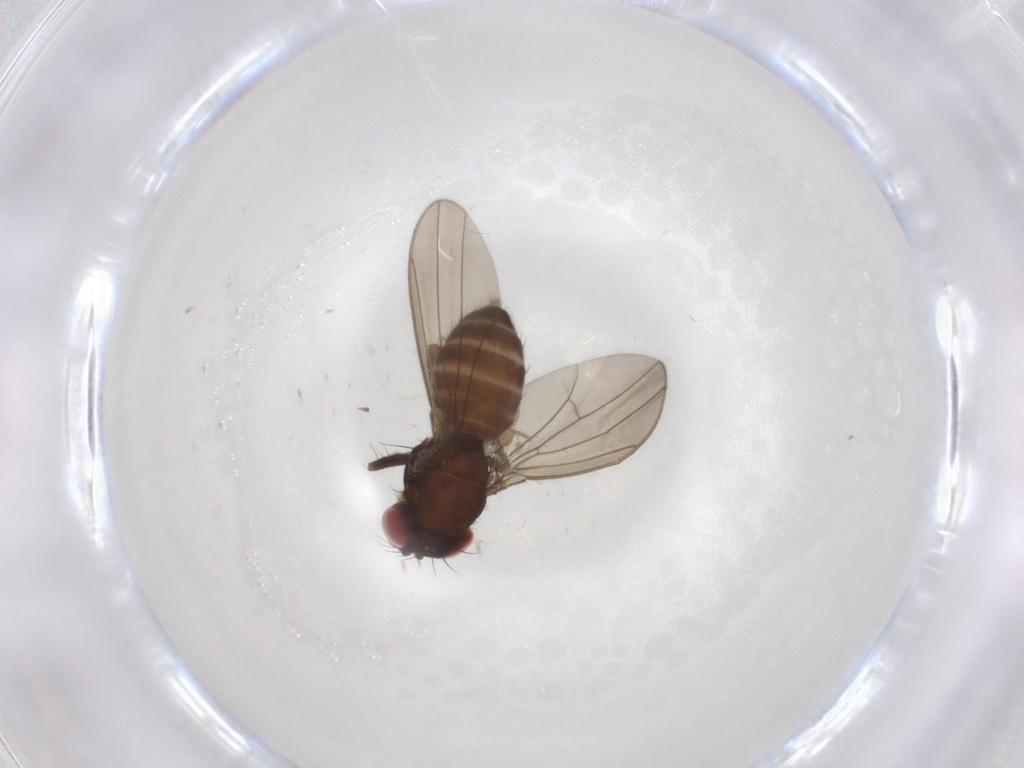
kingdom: Animalia
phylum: Arthropoda
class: Insecta
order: Diptera
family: Drosophilidae
